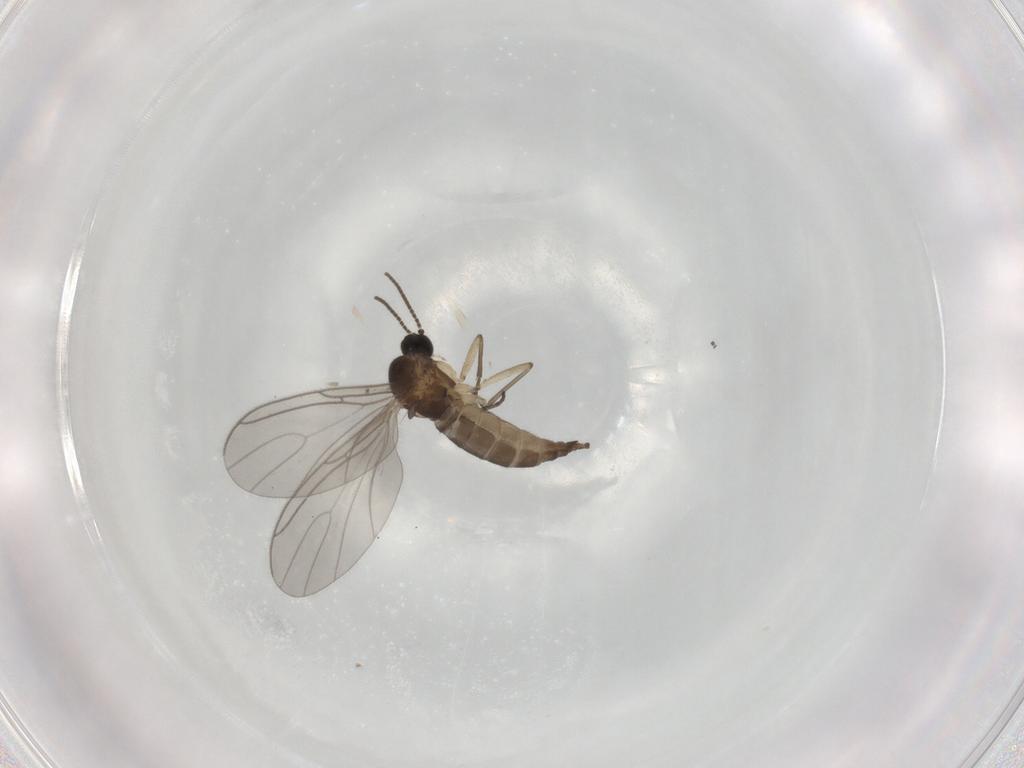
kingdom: Animalia
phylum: Arthropoda
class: Insecta
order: Diptera
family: Sciaridae
